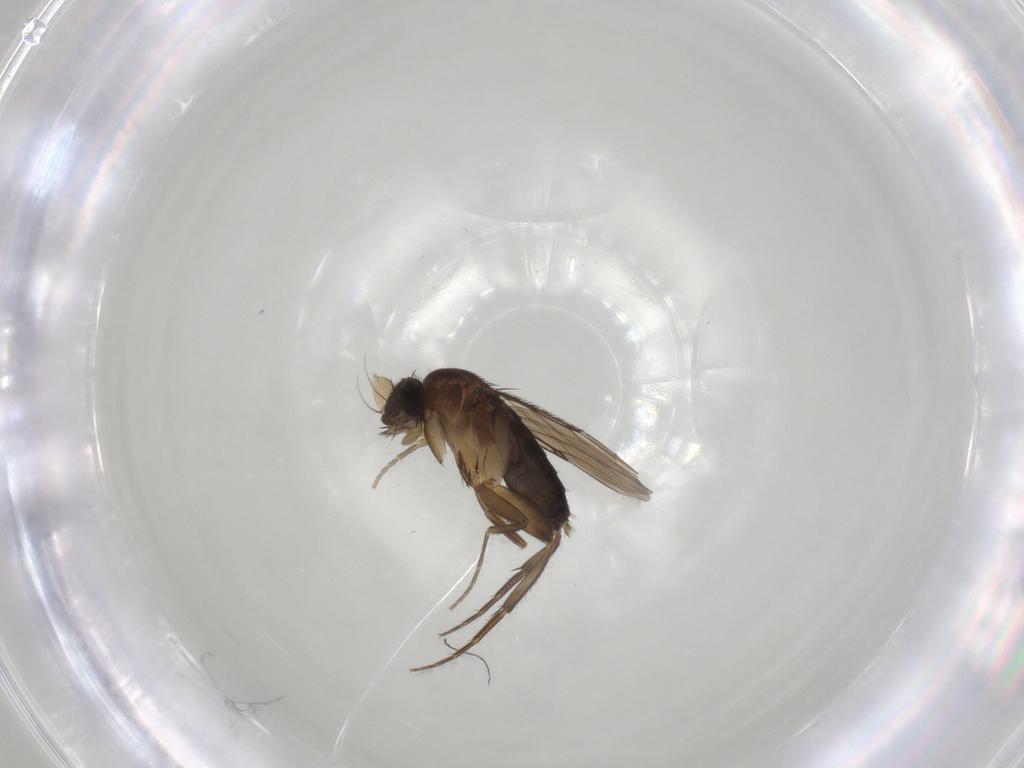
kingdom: Animalia
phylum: Arthropoda
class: Insecta
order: Diptera
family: Phoridae
